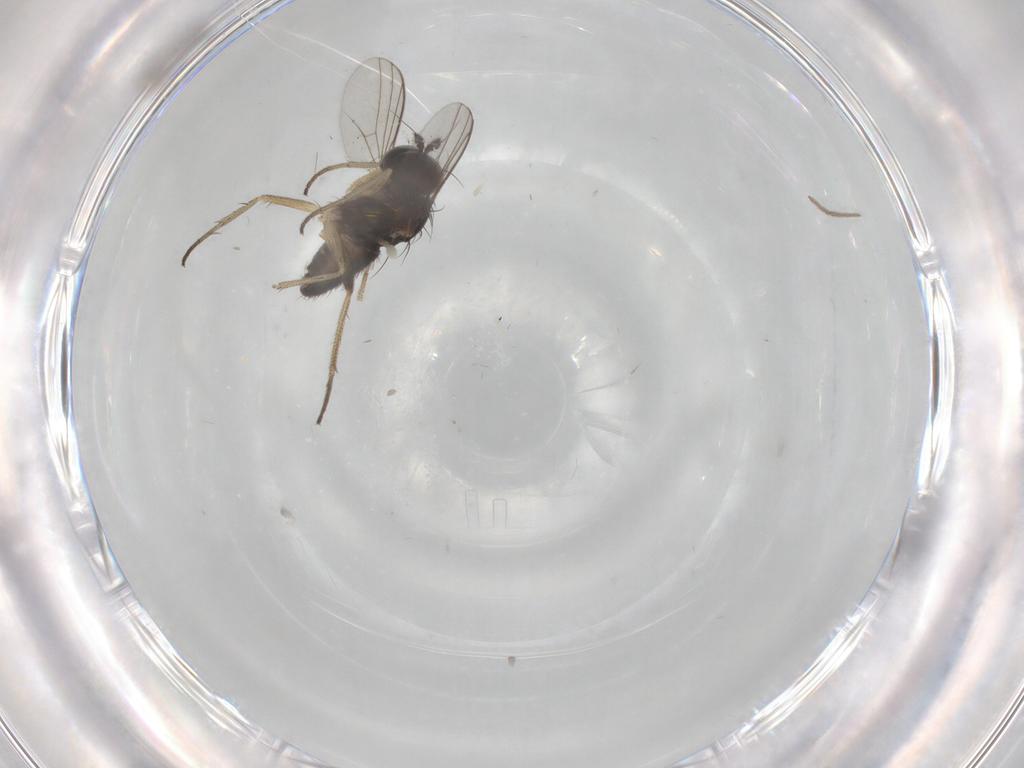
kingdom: Animalia
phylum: Arthropoda
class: Insecta
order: Diptera
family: Dolichopodidae
